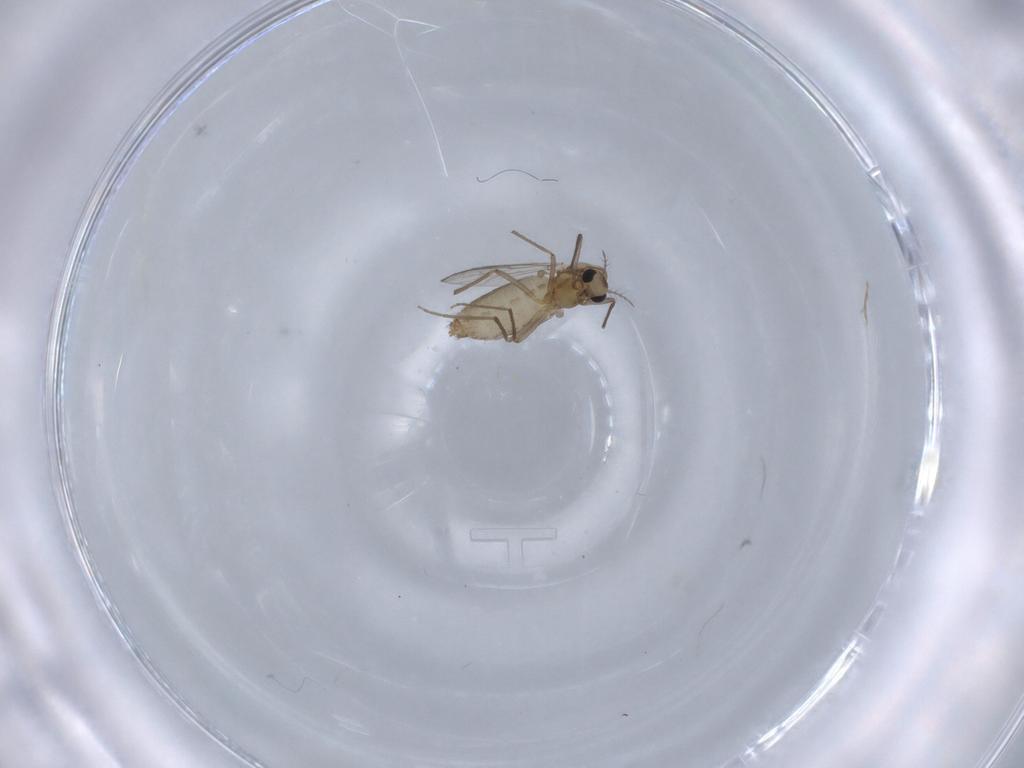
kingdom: Animalia
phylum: Arthropoda
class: Insecta
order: Diptera
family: Chironomidae
